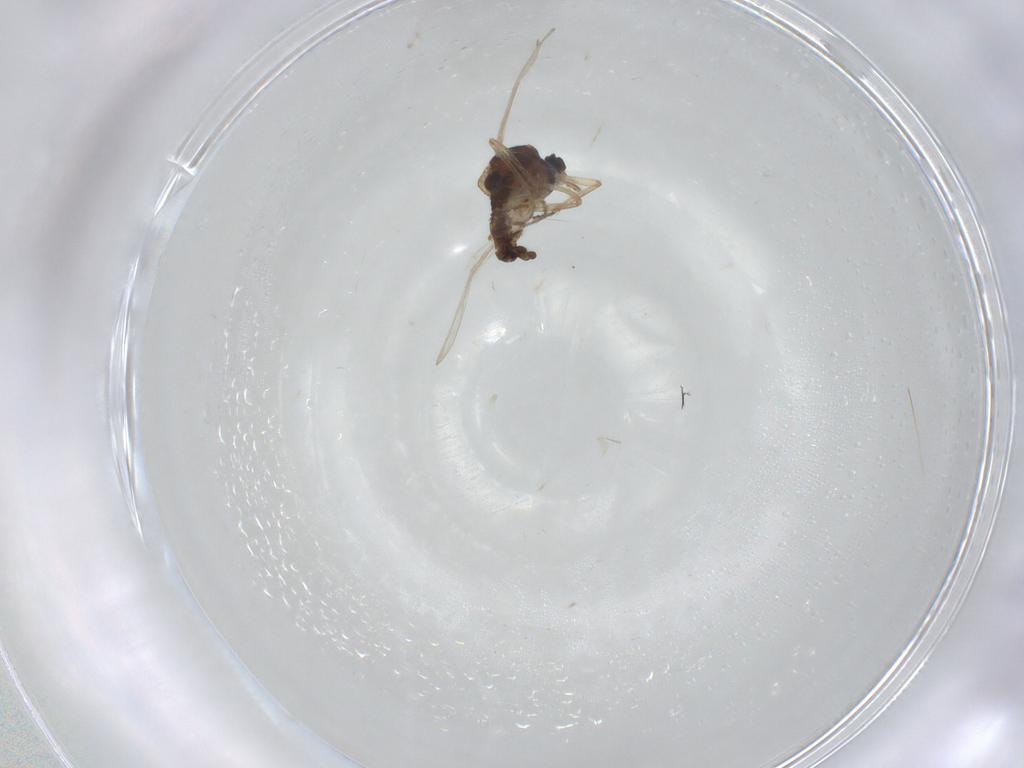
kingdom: Animalia
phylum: Arthropoda
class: Insecta
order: Diptera
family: Ceratopogonidae
